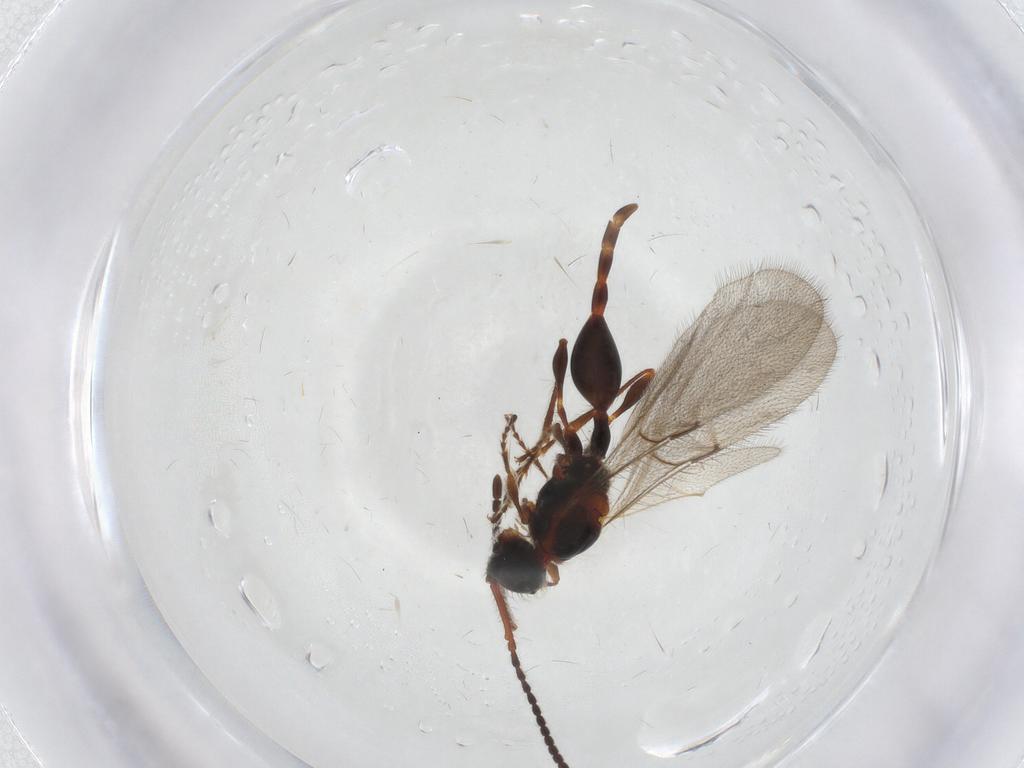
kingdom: Animalia
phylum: Arthropoda
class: Insecta
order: Hymenoptera
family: Diapriidae
